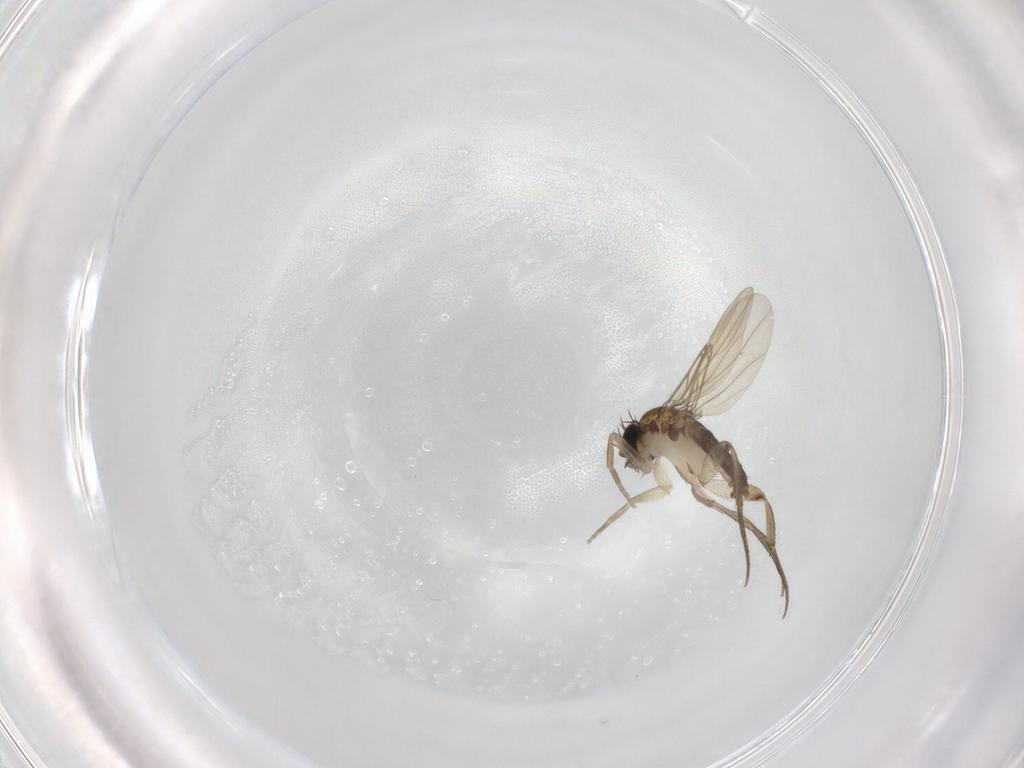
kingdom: Animalia
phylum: Arthropoda
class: Insecta
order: Diptera
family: Phoridae
